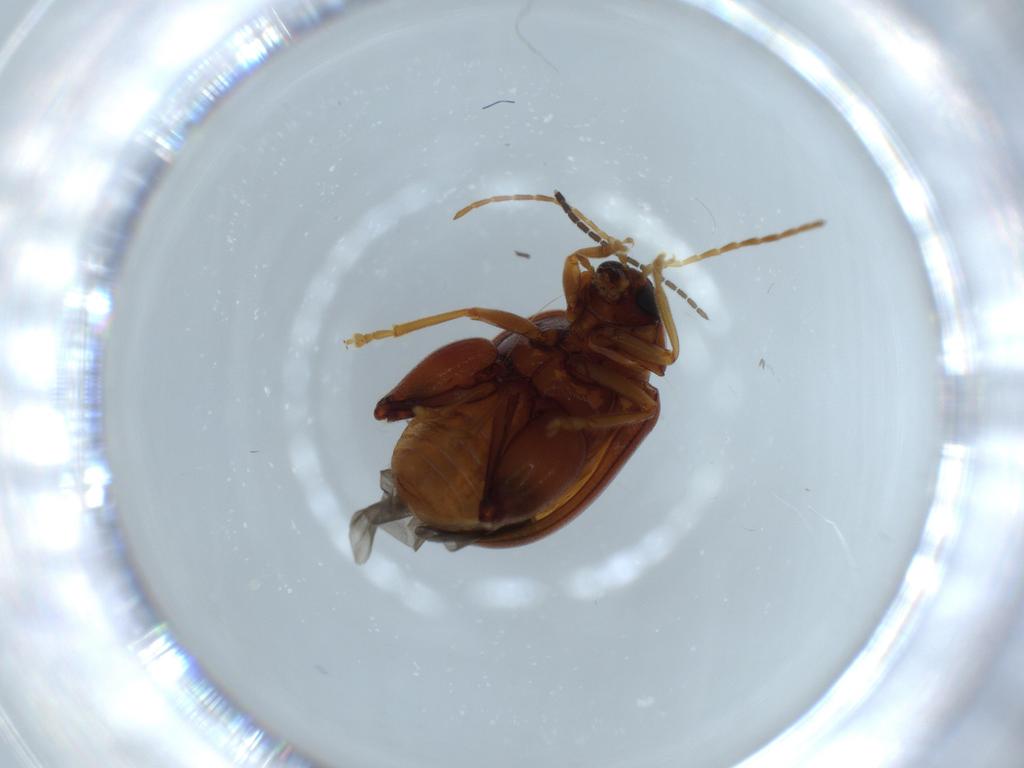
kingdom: Animalia
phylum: Arthropoda
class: Insecta
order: Coleoptera
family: Chrysomelidae
